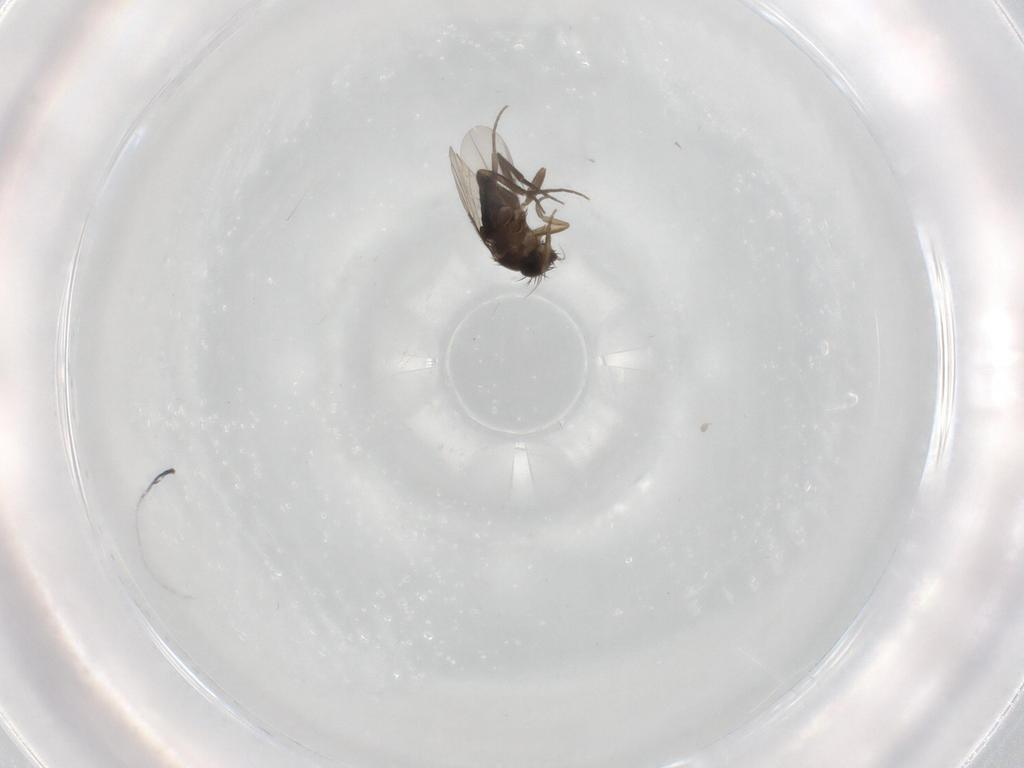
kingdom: Animalia
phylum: Arthropoda
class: Insecta
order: Diptera
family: Phoridae
